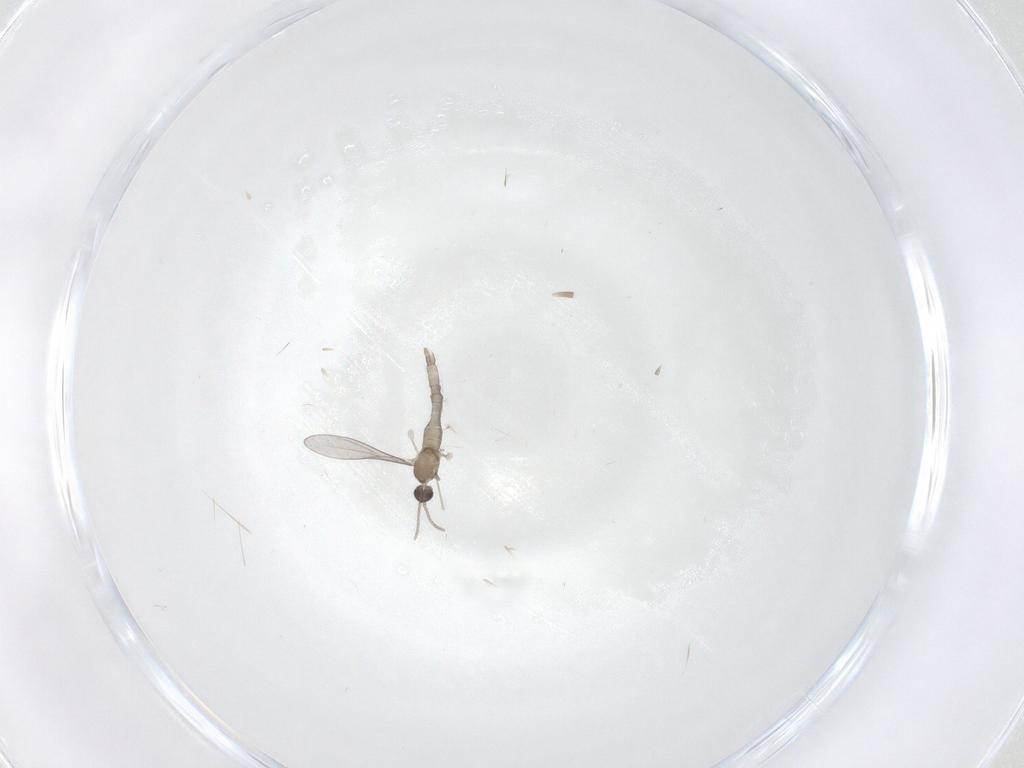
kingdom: Animalia
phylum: Arthropoda
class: Insecta
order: Diptera
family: Cecidomyiidae
